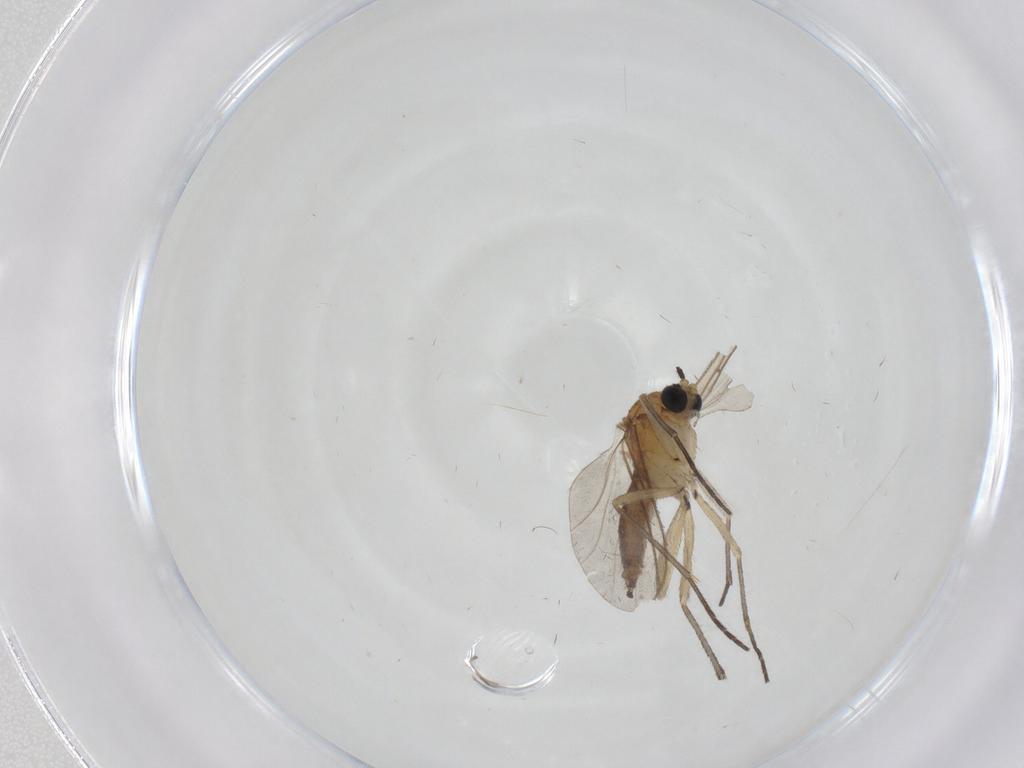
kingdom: Animalia
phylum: Arthropoda
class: Insecta
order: Diptera
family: Sciaridae
